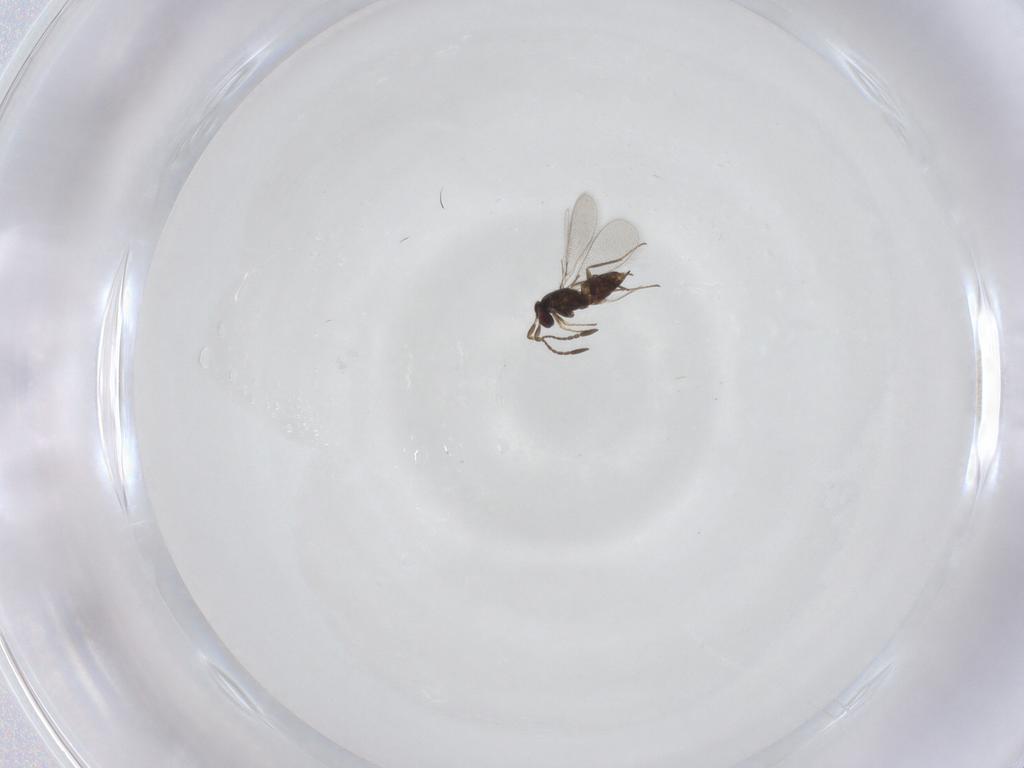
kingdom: Animalia
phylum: Arthropoda
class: Insecta
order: Hymenoptera
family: Mymaridae
